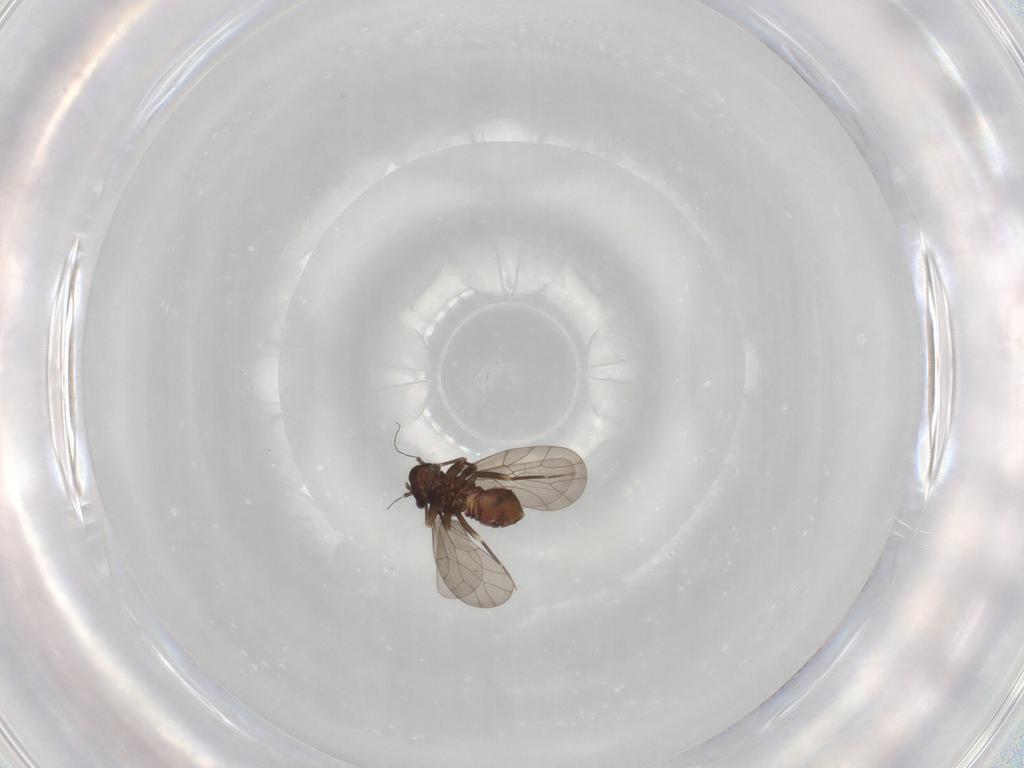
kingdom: Animalia
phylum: Arthropoda
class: Insecta
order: Psocodea
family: Lepidopsocidae
